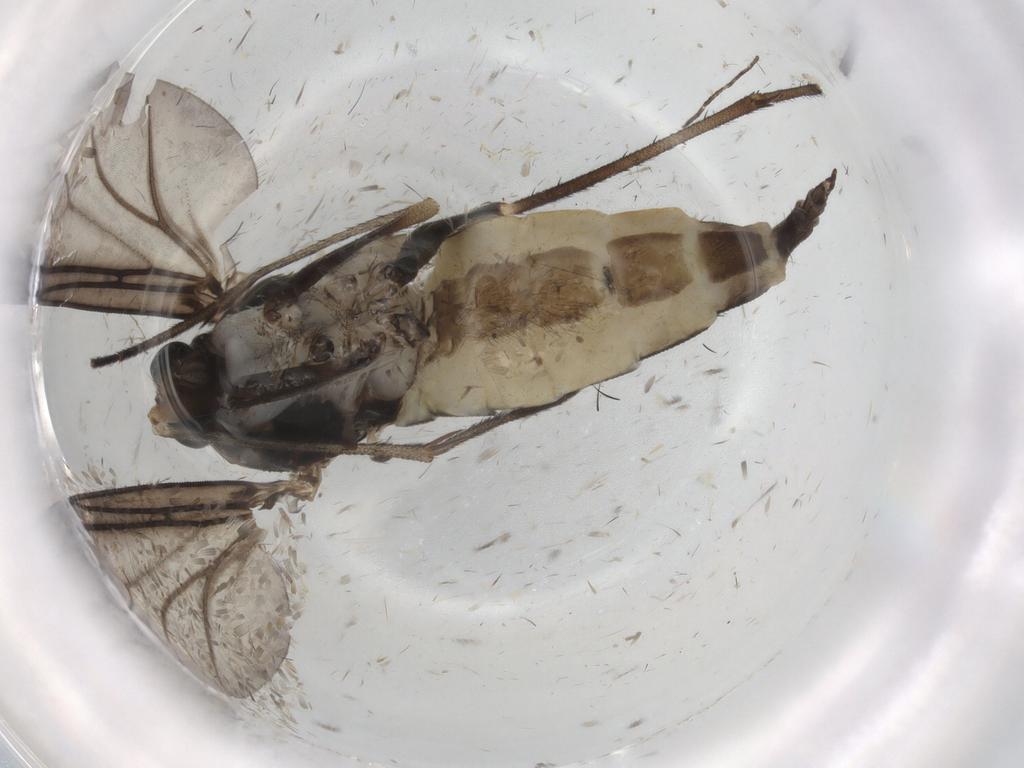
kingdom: Animalia
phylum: Arthropoda
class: Insecta
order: Diptera
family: Sciaridae
